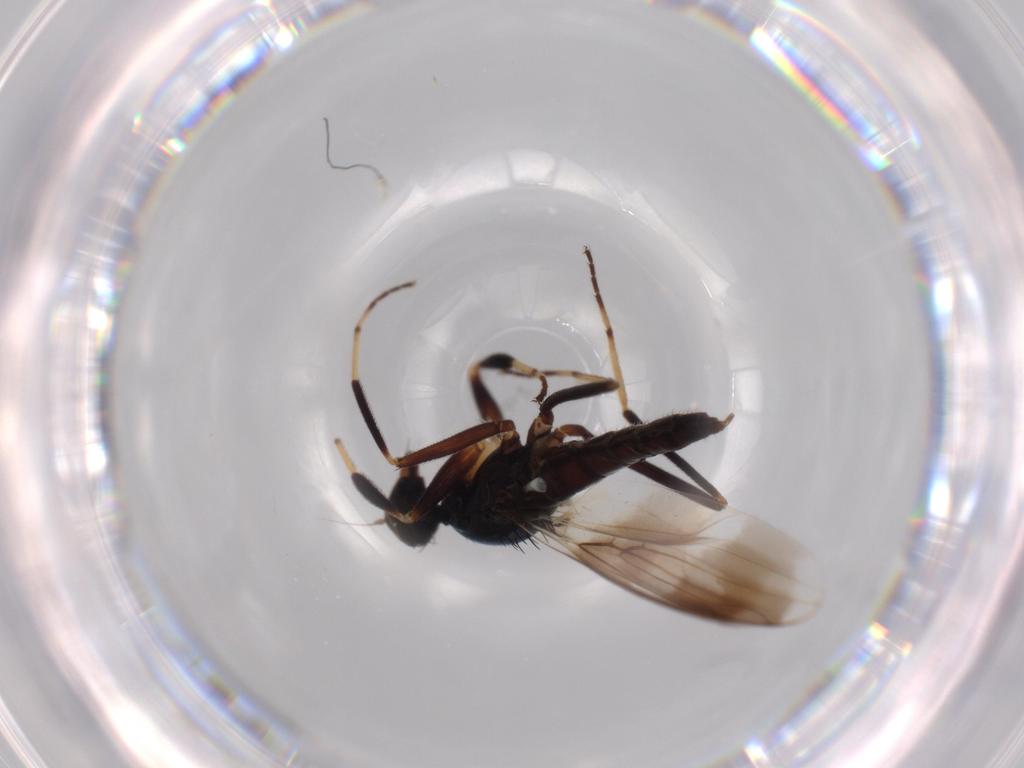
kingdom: Animalia
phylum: Arthropoda
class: Insecta
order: Diptera
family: Hybotidae
